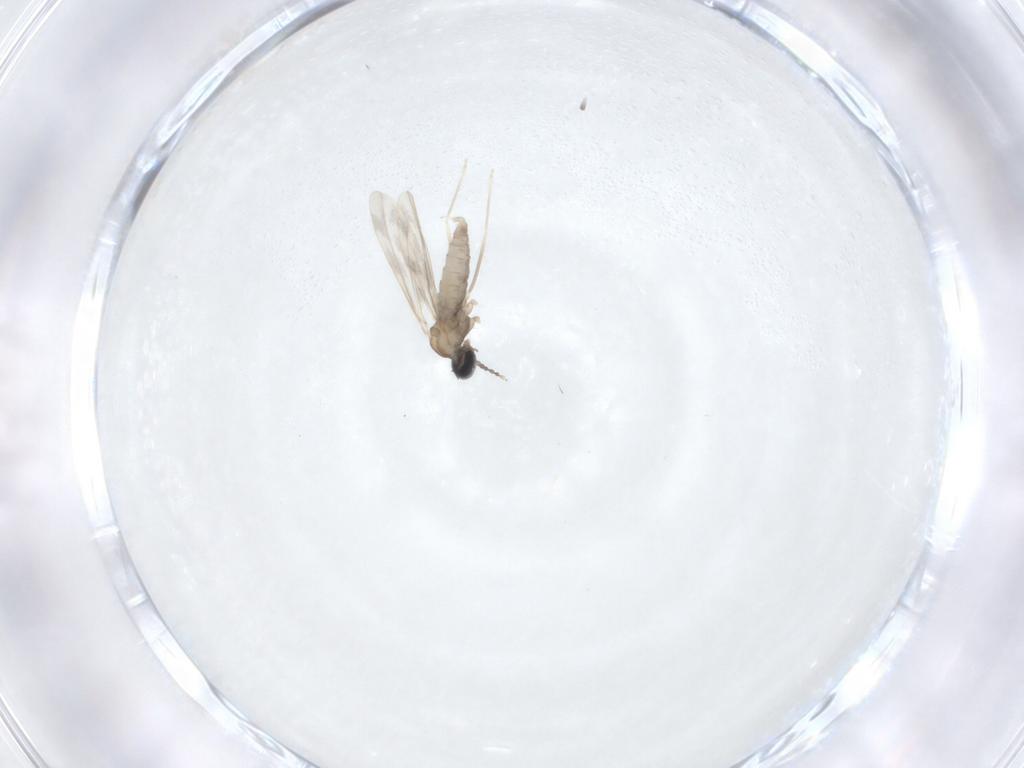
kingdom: Animalia
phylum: Arthropoda
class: Insecta
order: Diptera
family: Cecidomyiidae
